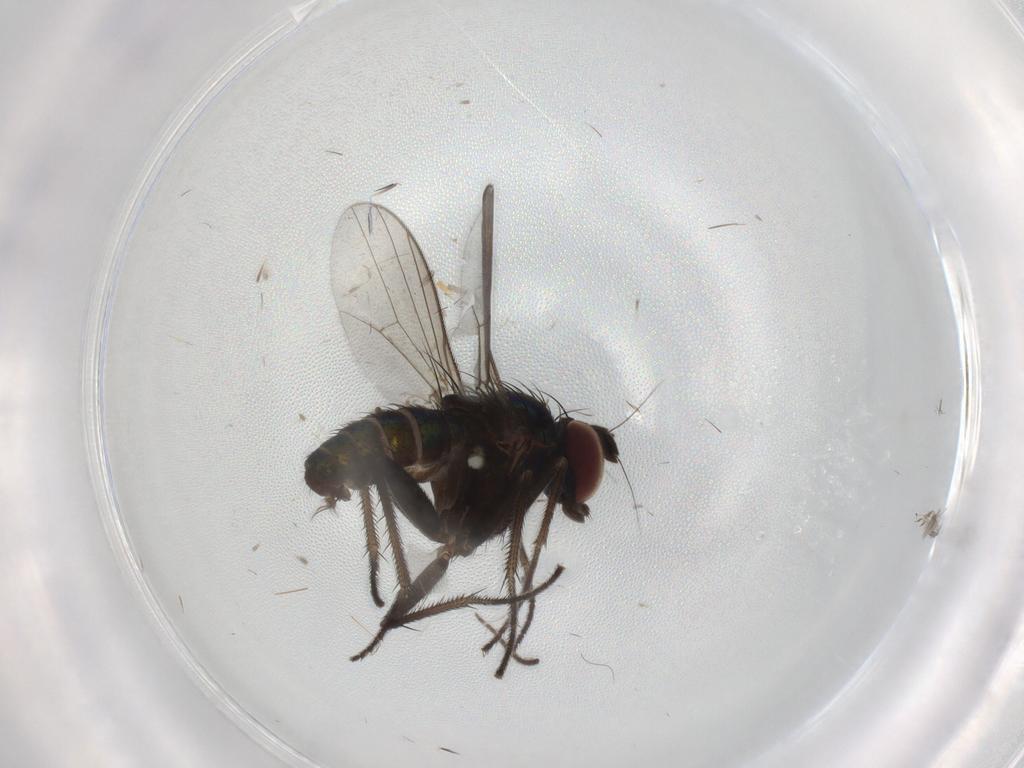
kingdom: Animalia
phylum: Arthropoda
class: Insecta
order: Diptera
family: Dolichopodidae
